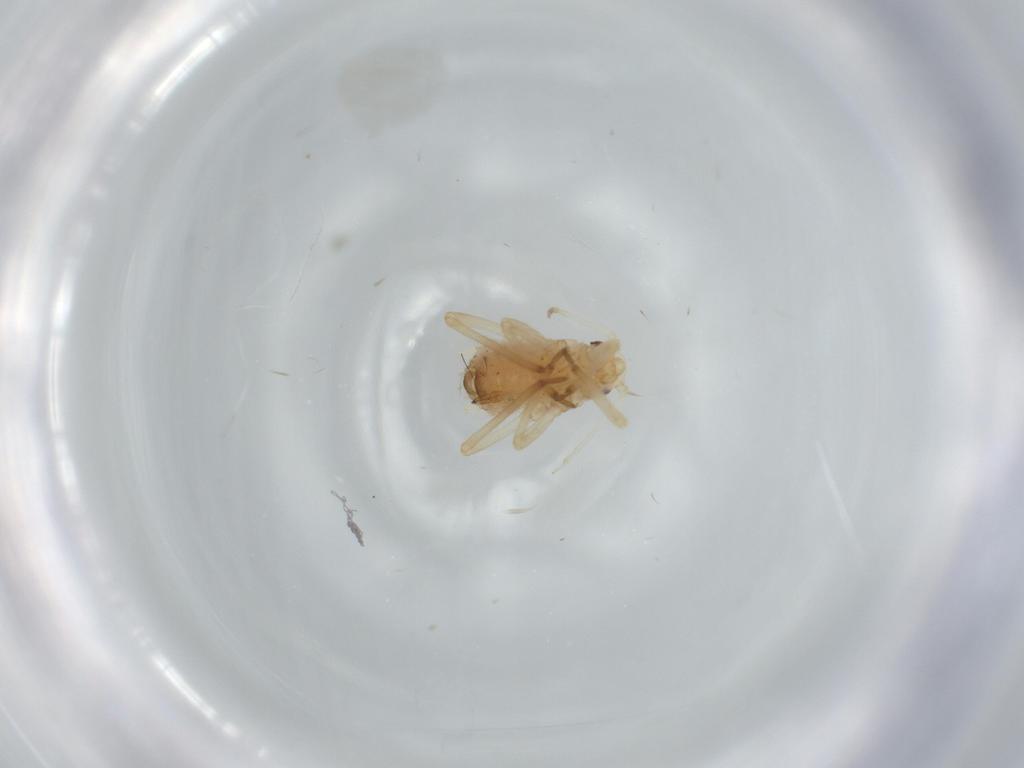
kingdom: Animalia
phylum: Arthropoda
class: Insecta
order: Hemiptera
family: Aphididae
